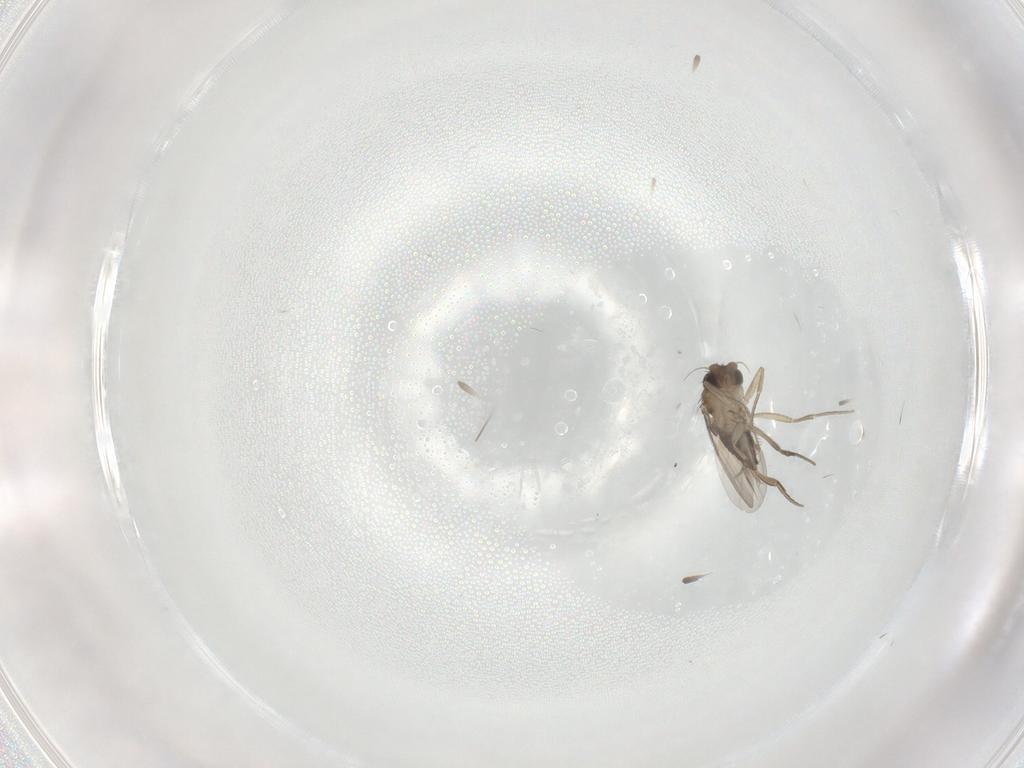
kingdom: Animalia
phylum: Arthropoda
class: Insecta
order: Diptera
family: Phoridae
